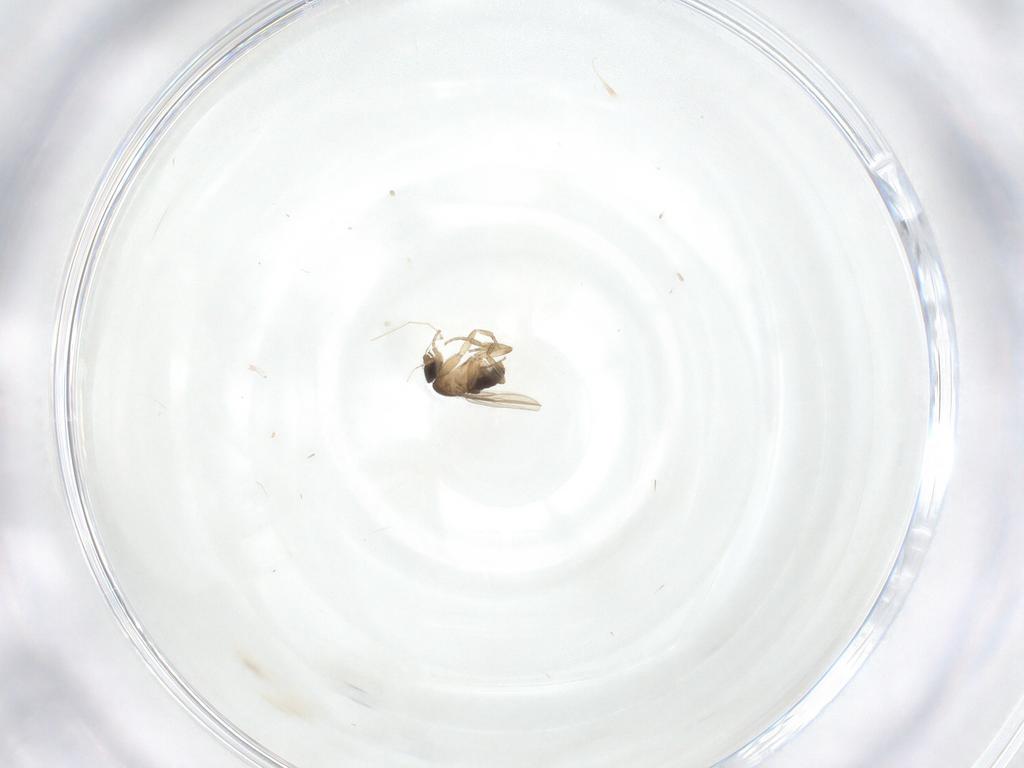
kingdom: Animalia
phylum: Arthropoda
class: Insecta
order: Diptera
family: Cecidomyiidae
